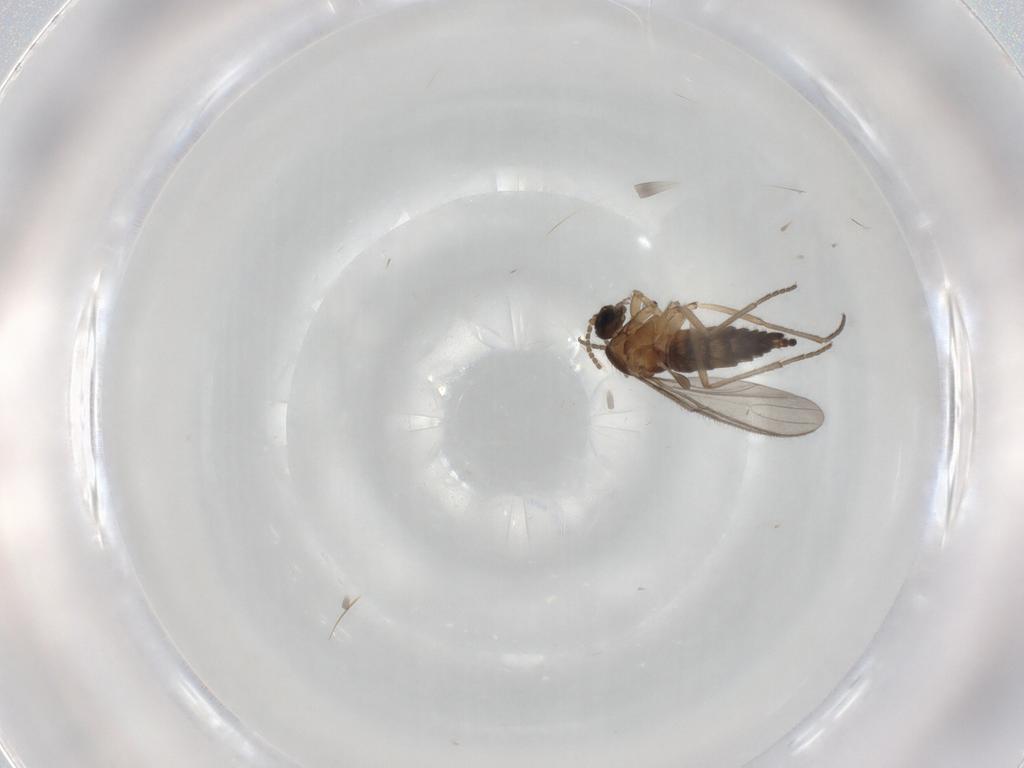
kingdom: Animalia
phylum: Arthropoda
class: Insecta
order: Diptera
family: Sciaridae
